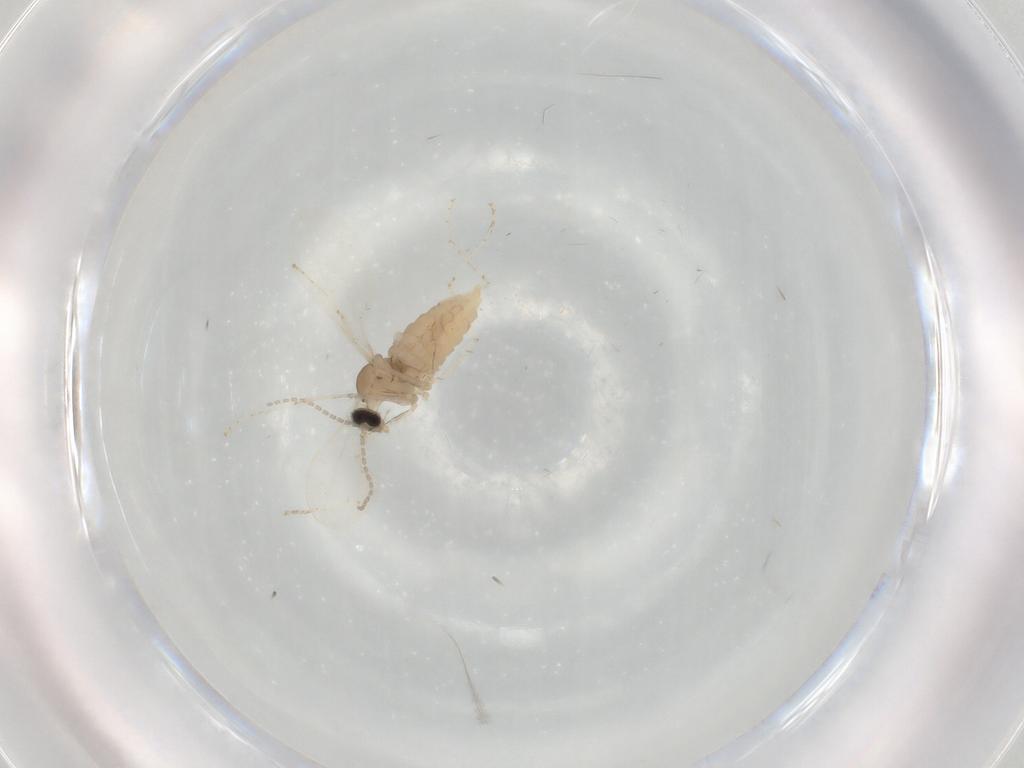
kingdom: Animalia
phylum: Arthropoda
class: Insecta
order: Diptera
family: Cecidomyiidae
